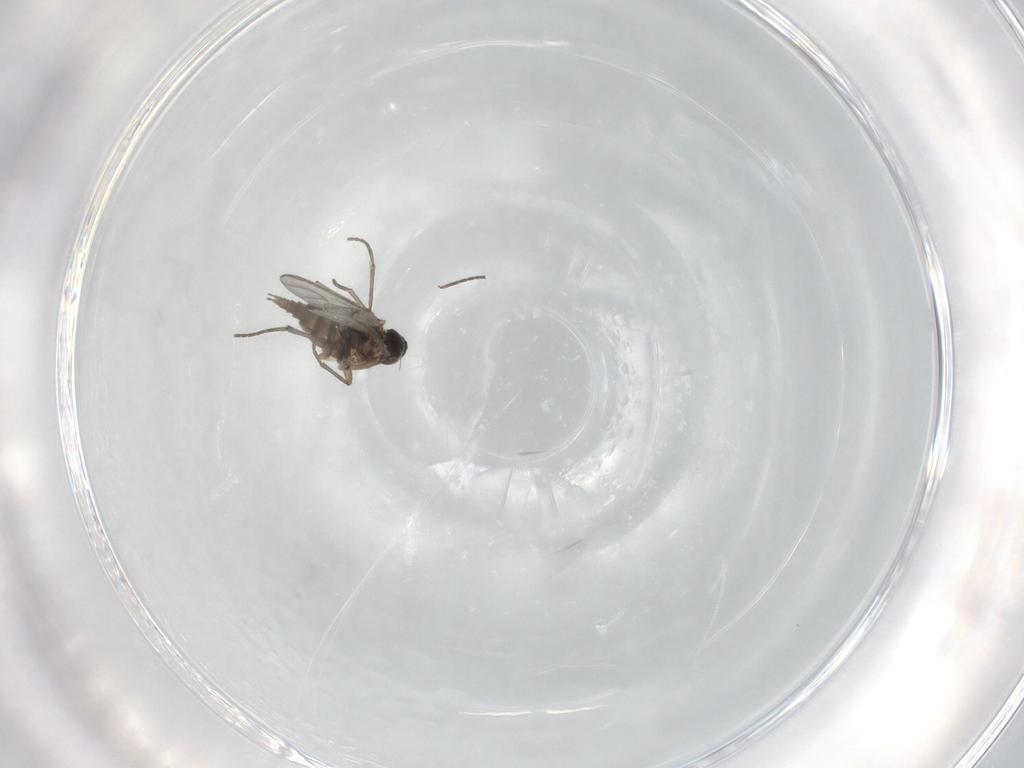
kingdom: Animalia
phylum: Arthropoda
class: Insecta
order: Diptera
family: Sciaridae
